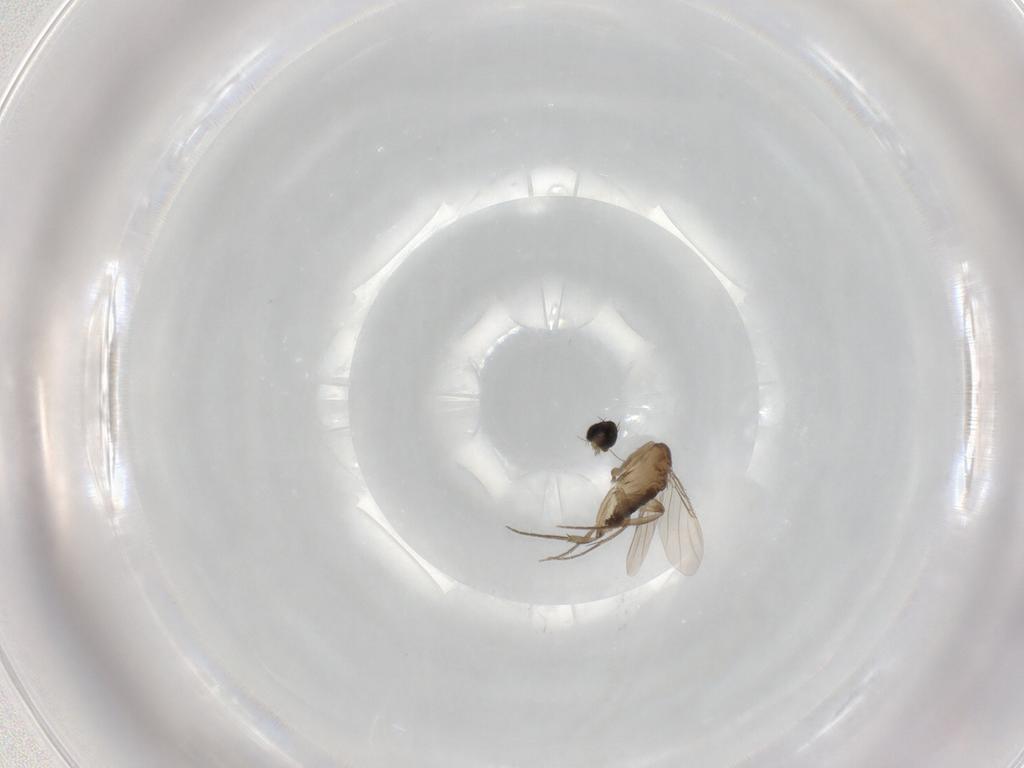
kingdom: Animalia
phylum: Arthropoda
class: Insecta
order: Diptera
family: Phoridae
